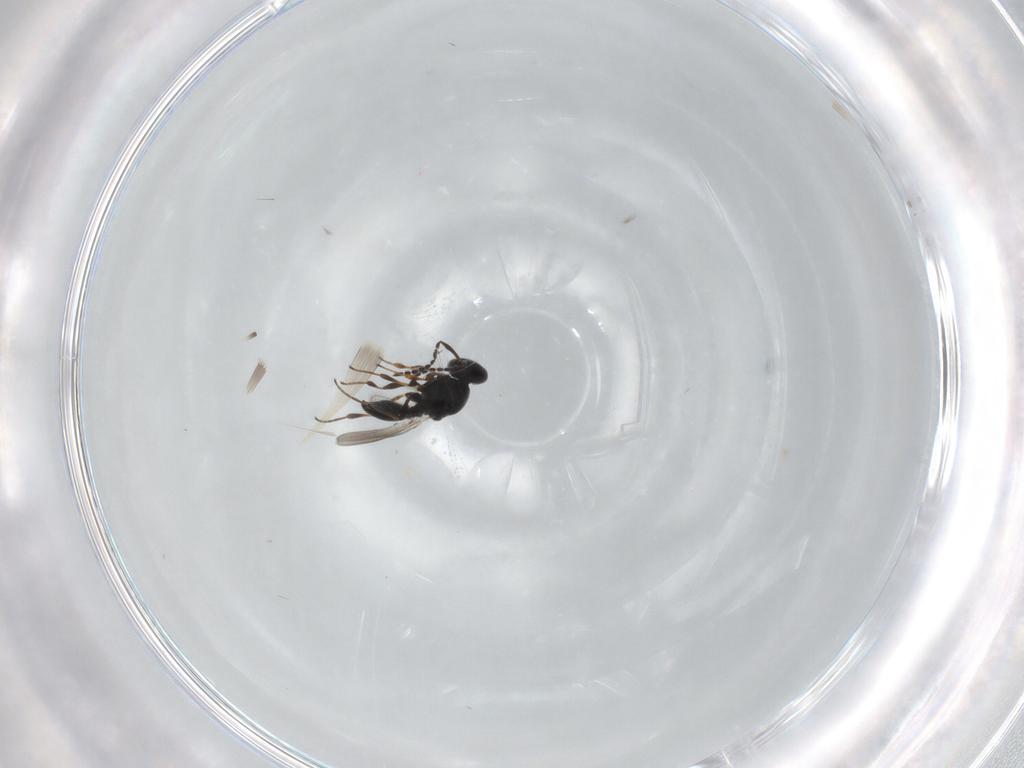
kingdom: Animalia
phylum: Arthropoda
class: Insecta
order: Hymenoptera
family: Platygastridae
